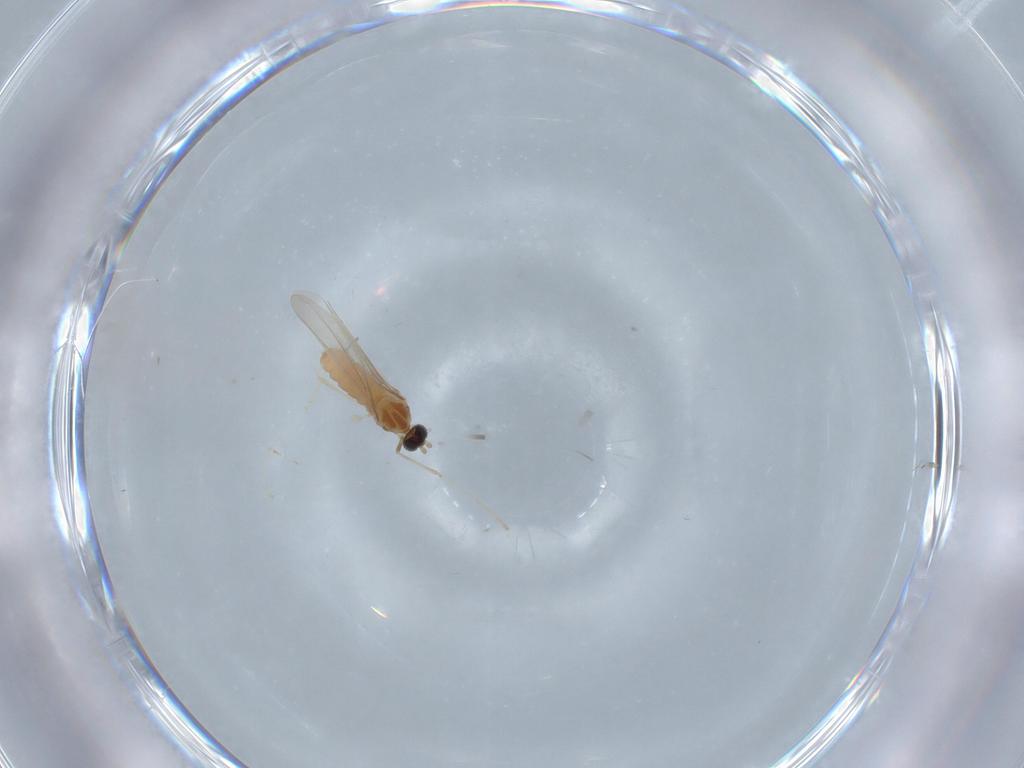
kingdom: Animalia
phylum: Arthropoda
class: Insecta
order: Diptera
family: Cecidomyiidae
